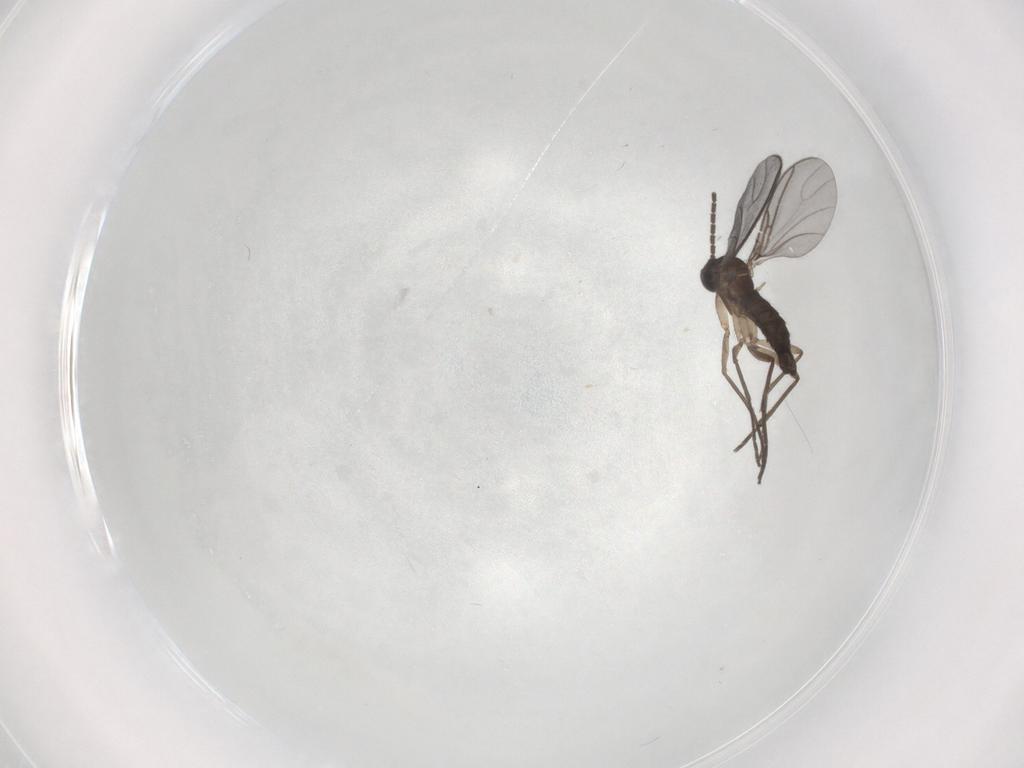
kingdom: Animalia
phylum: Arthropoda
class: Insecta
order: Diptera
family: Sciaridae
